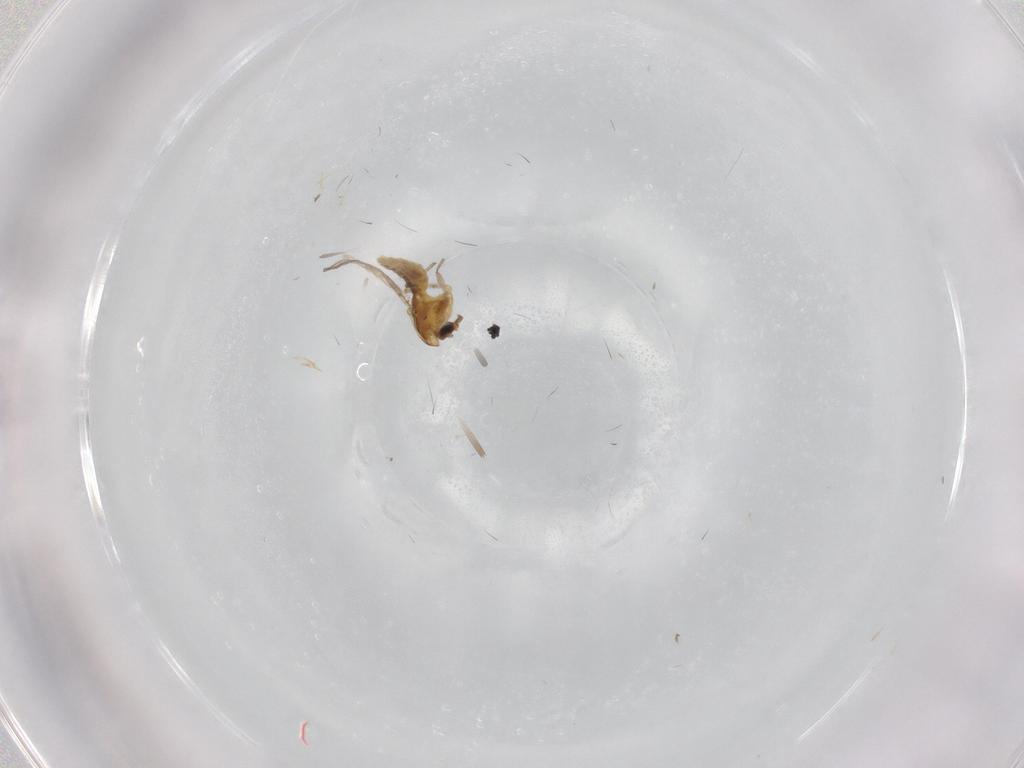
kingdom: Animalia
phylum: Arthropoda
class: Insecta
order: Diptera
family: Chironomidae
